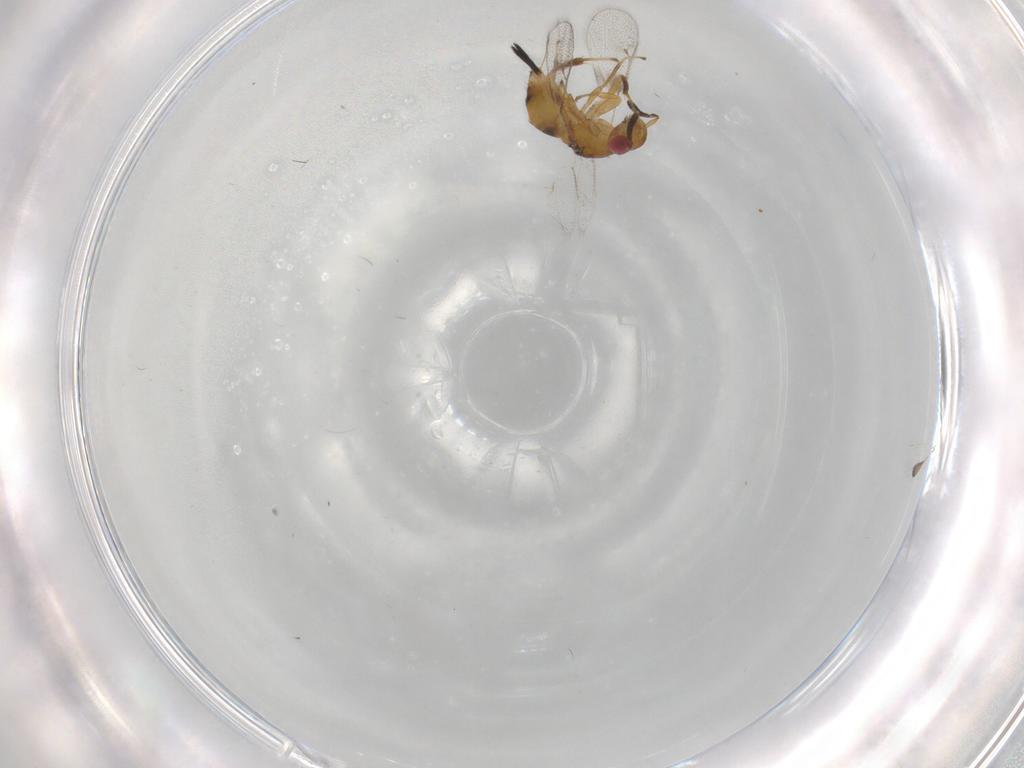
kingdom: Animalia
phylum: Arthropoda
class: Insecta
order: Hymenoptera
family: Torymidae
